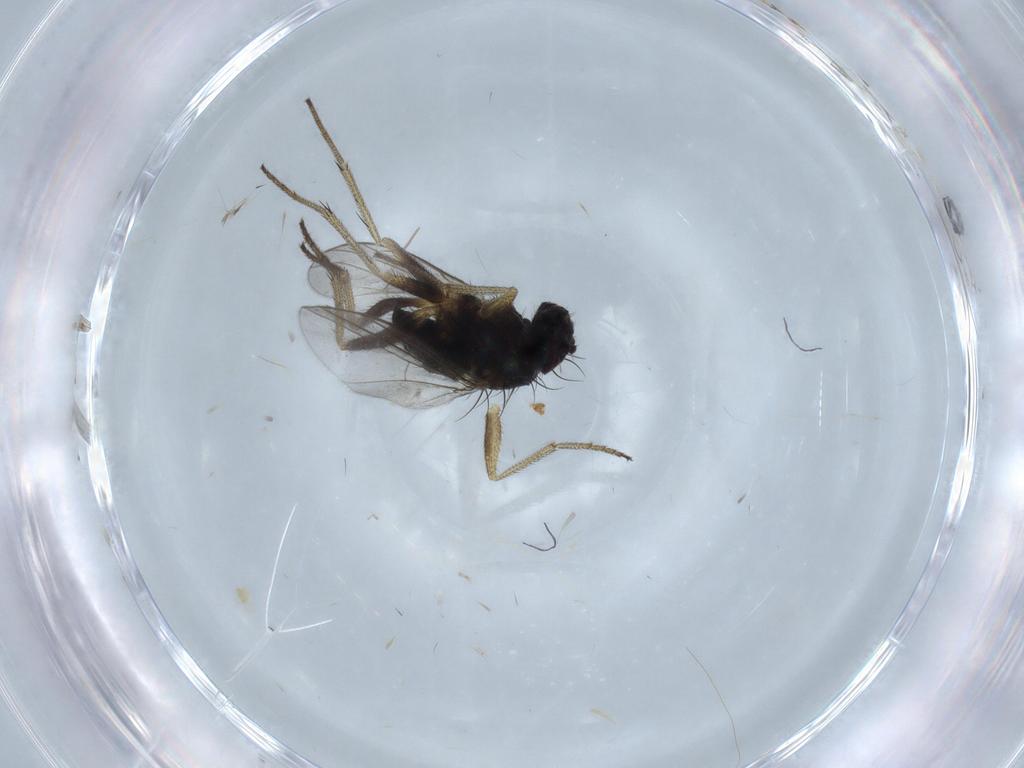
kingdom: Animalia
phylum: Arthropoda
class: Insecta
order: Diptera
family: Dolichopodidae
